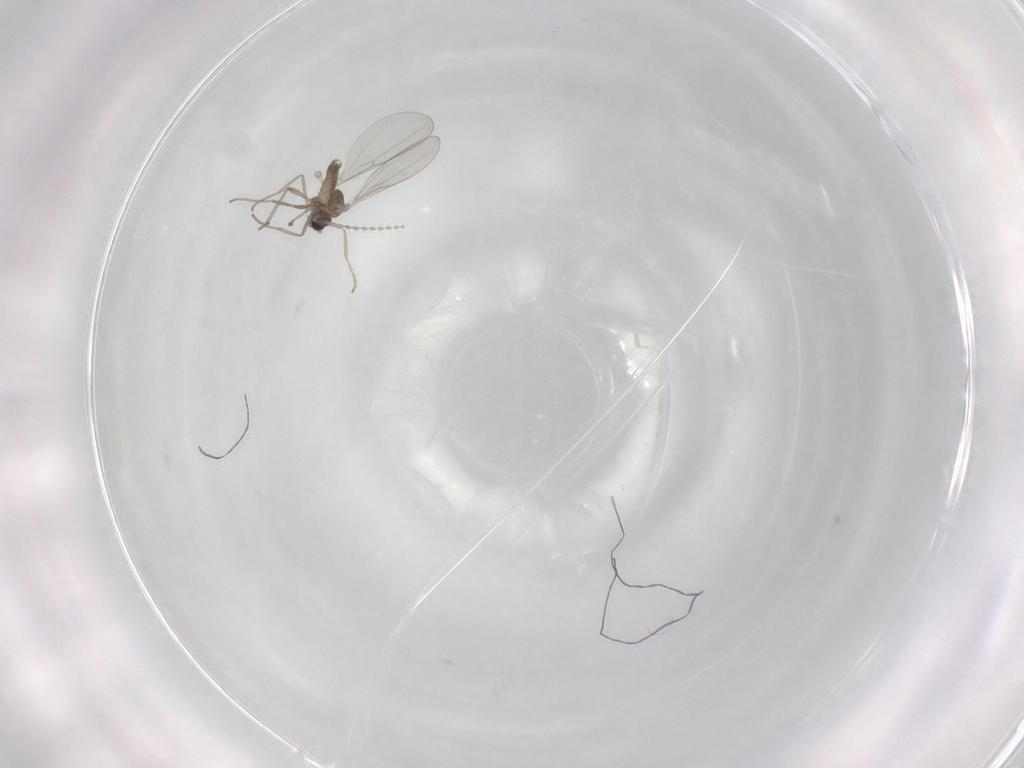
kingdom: Animalia
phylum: Arthropoda
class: Insecta
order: Diptera
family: Cecidomyiidae
